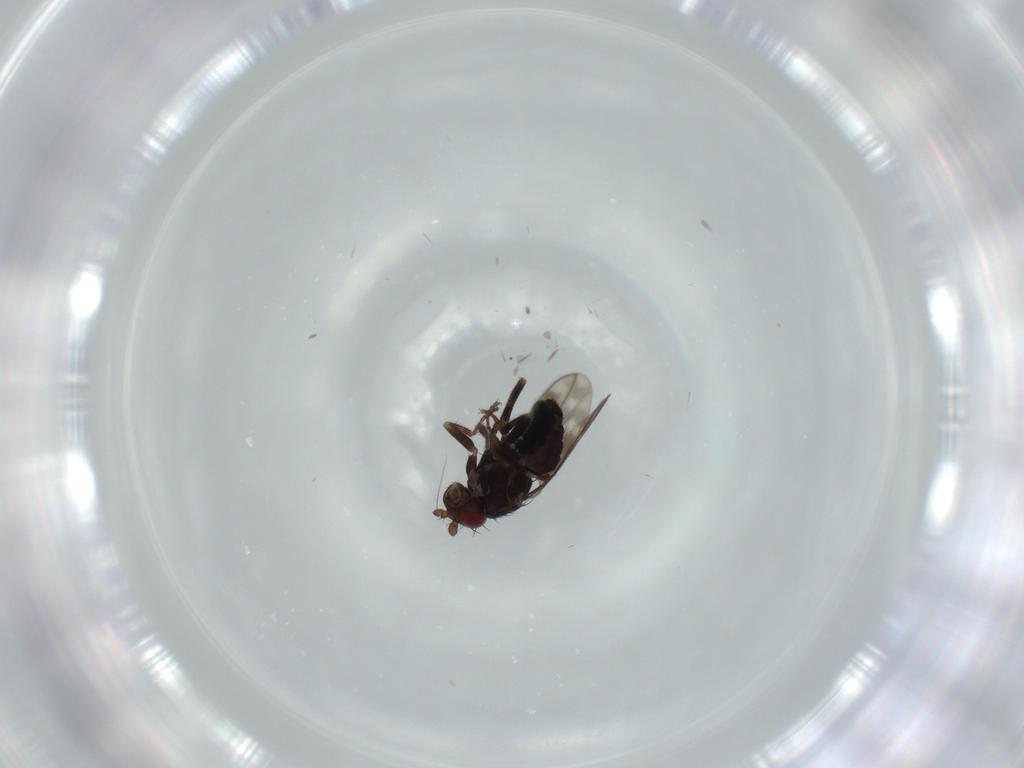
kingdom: Animalia
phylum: Arthropoda
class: Insecta
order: Diptera
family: Sphaeroceridae
